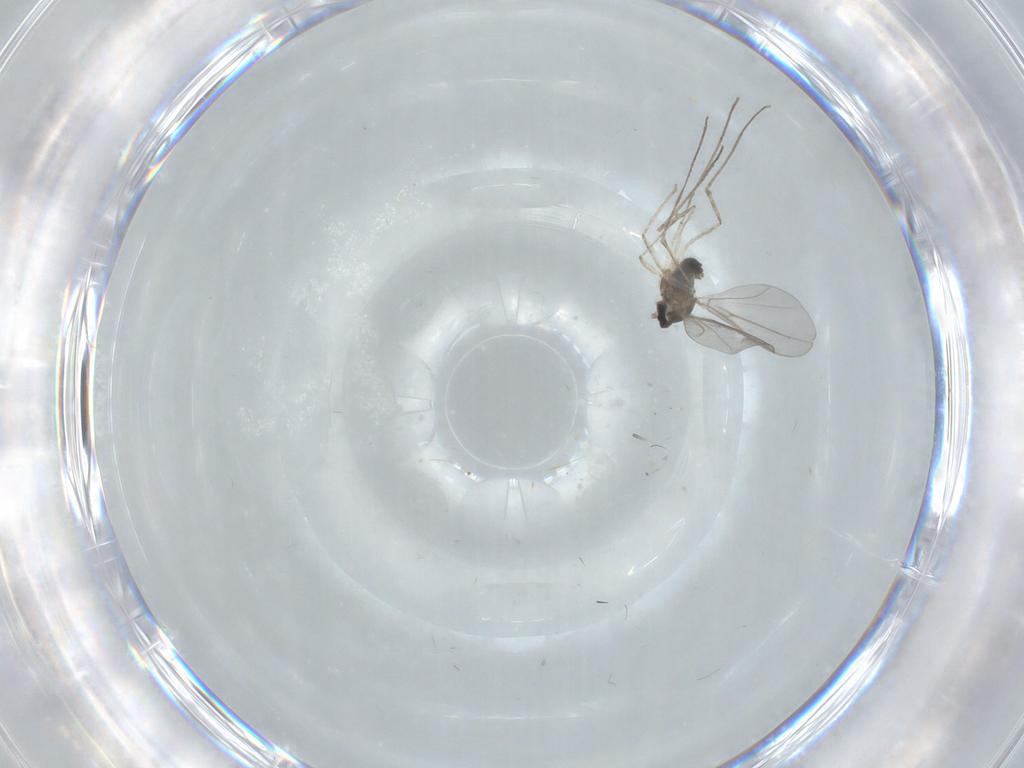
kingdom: Animalia
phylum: Arthropoda
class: Insecta
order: Diptera
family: Cecidomyiidae
